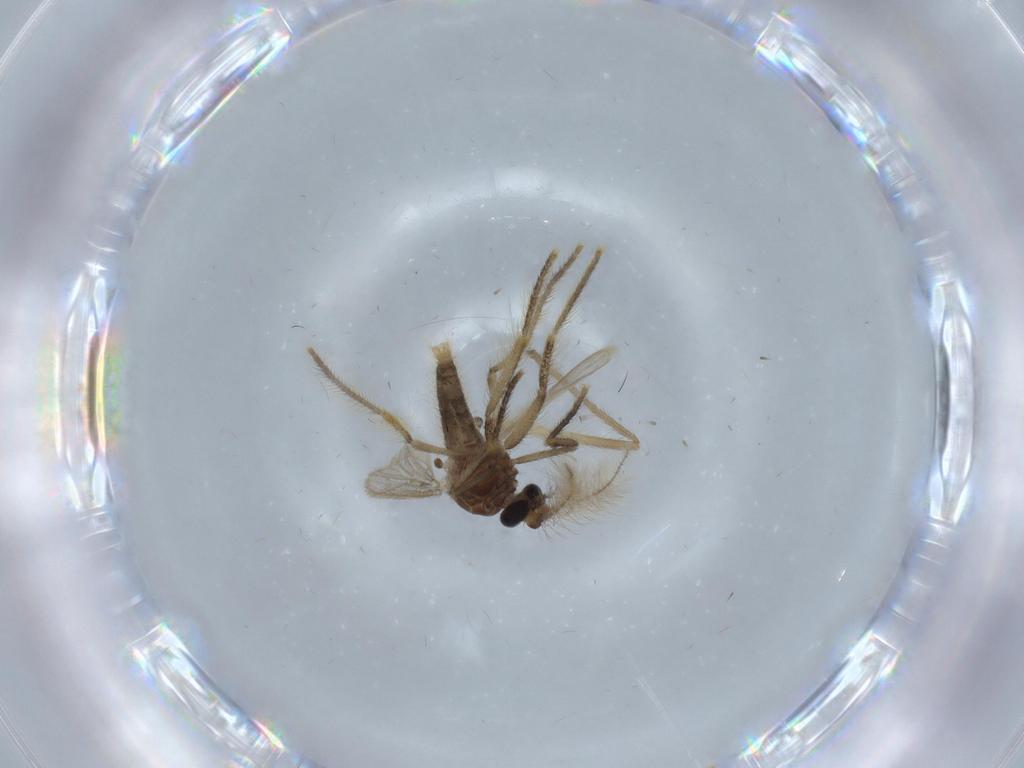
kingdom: Animalia
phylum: Arthropoda
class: Insecta
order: Diptera
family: Corethrellidae
